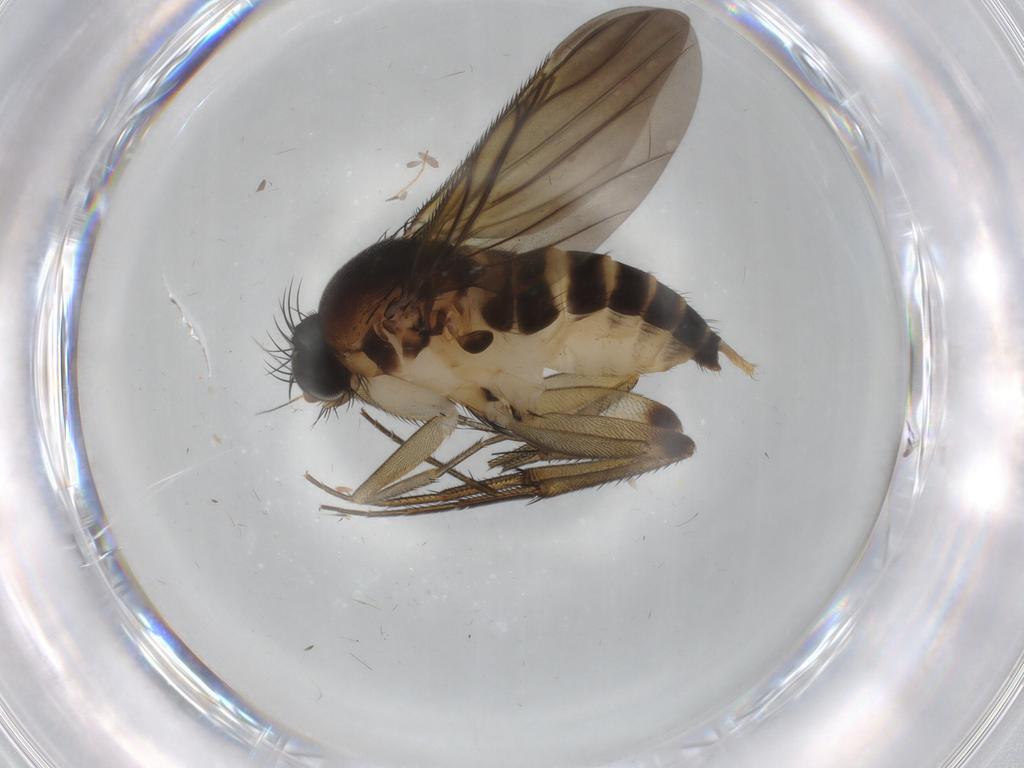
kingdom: Animalia
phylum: Arthropoda
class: Insecta
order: Diptera
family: Phoridae
